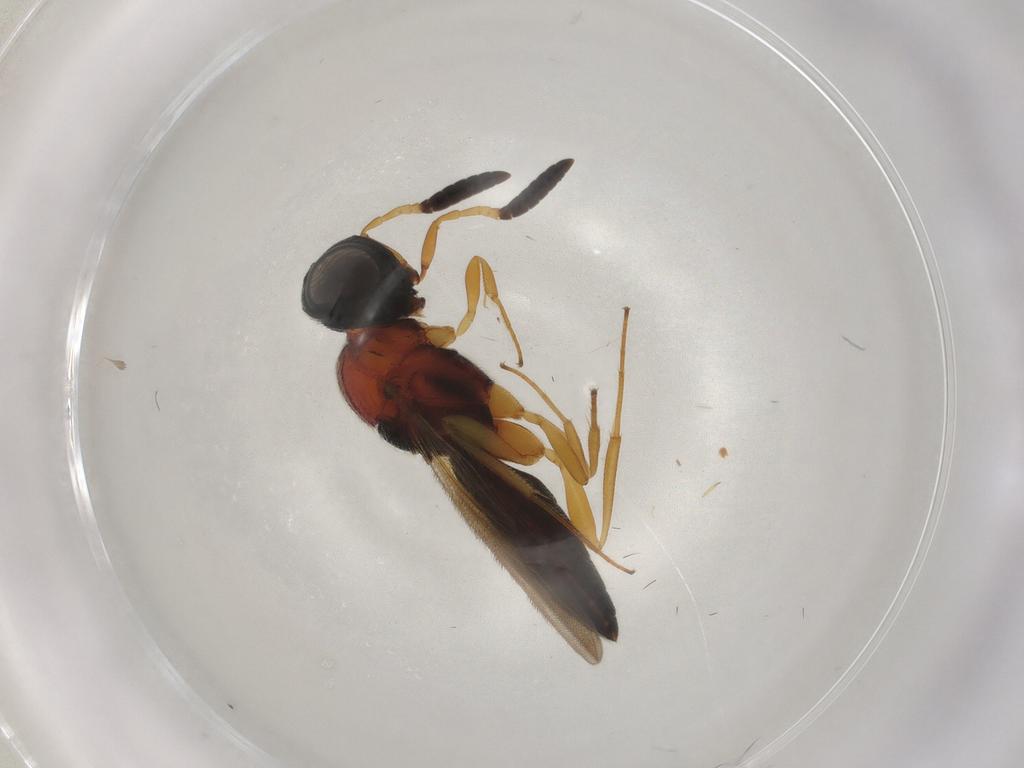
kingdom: Animalia
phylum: Arthropoda
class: Insecta
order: Hymenoptera
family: Scelionidae
